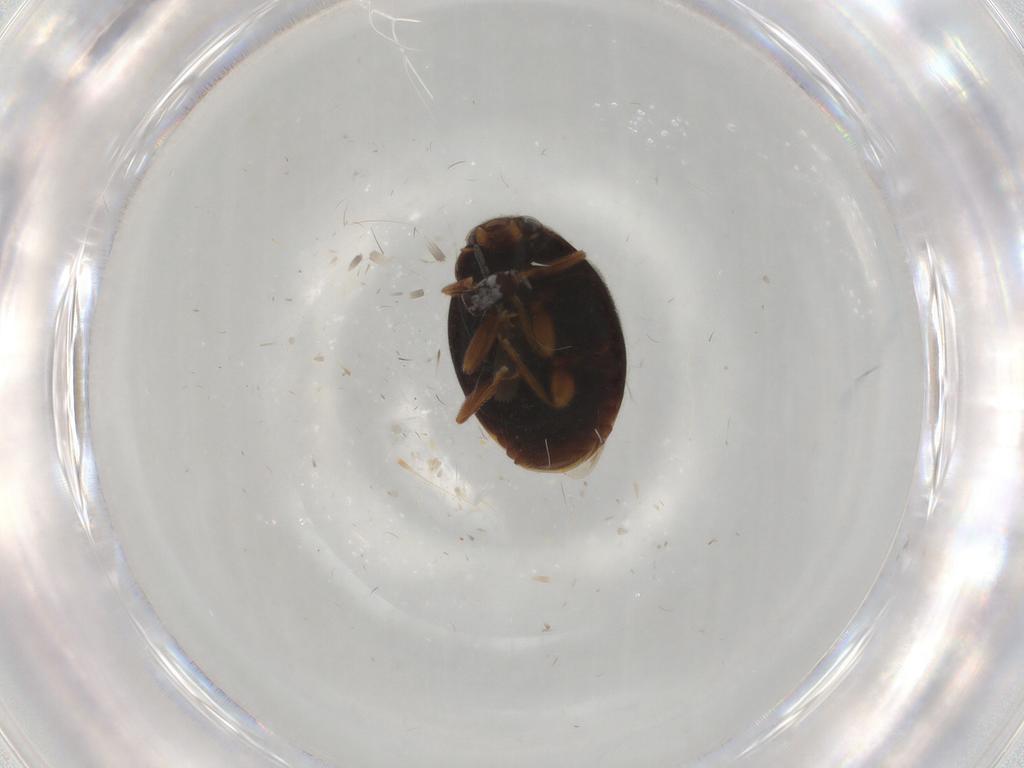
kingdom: Animalia
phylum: Arthropoda
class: Insecta
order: Coleoptera
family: Coccinellidae
